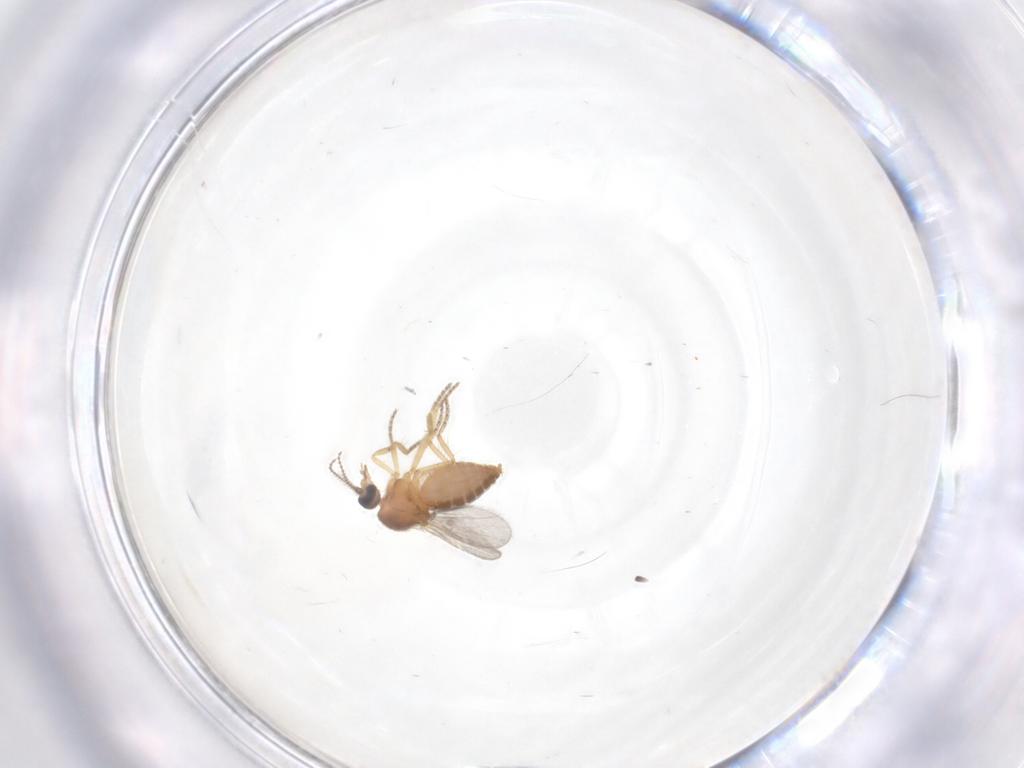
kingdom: Animalia
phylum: Arthropoda
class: Insecta
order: Diptera
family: Ceratopogonidae
